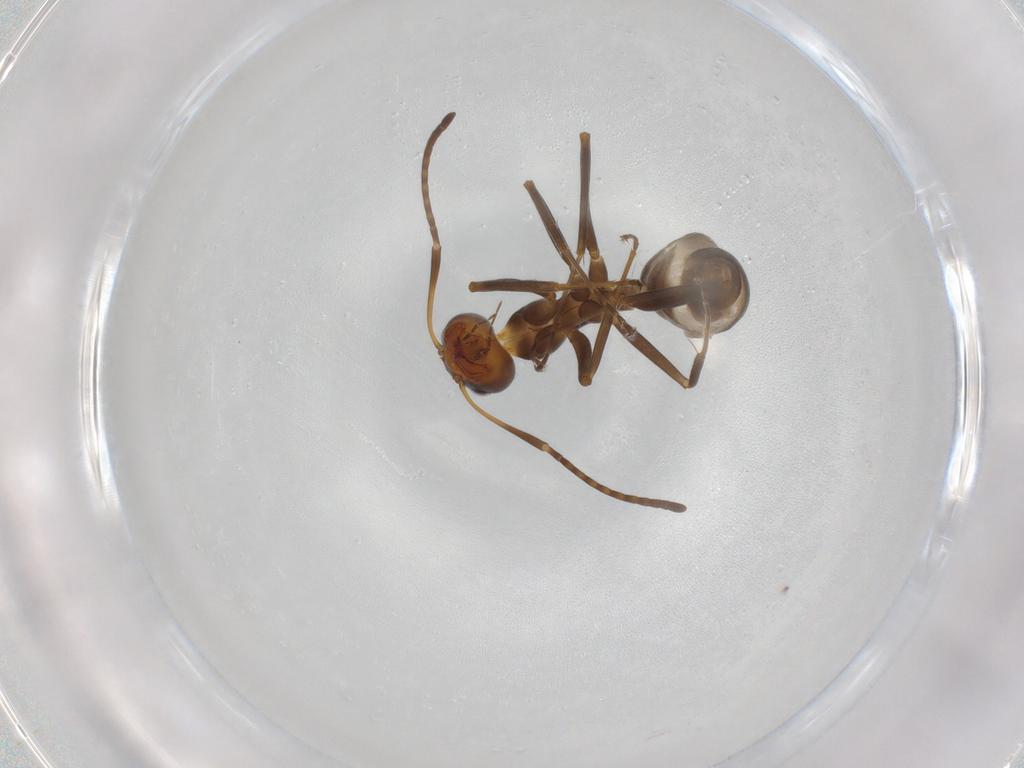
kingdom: Animalia
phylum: Arthropoda
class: Insecta
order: Hymenoptera
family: Formicidae
